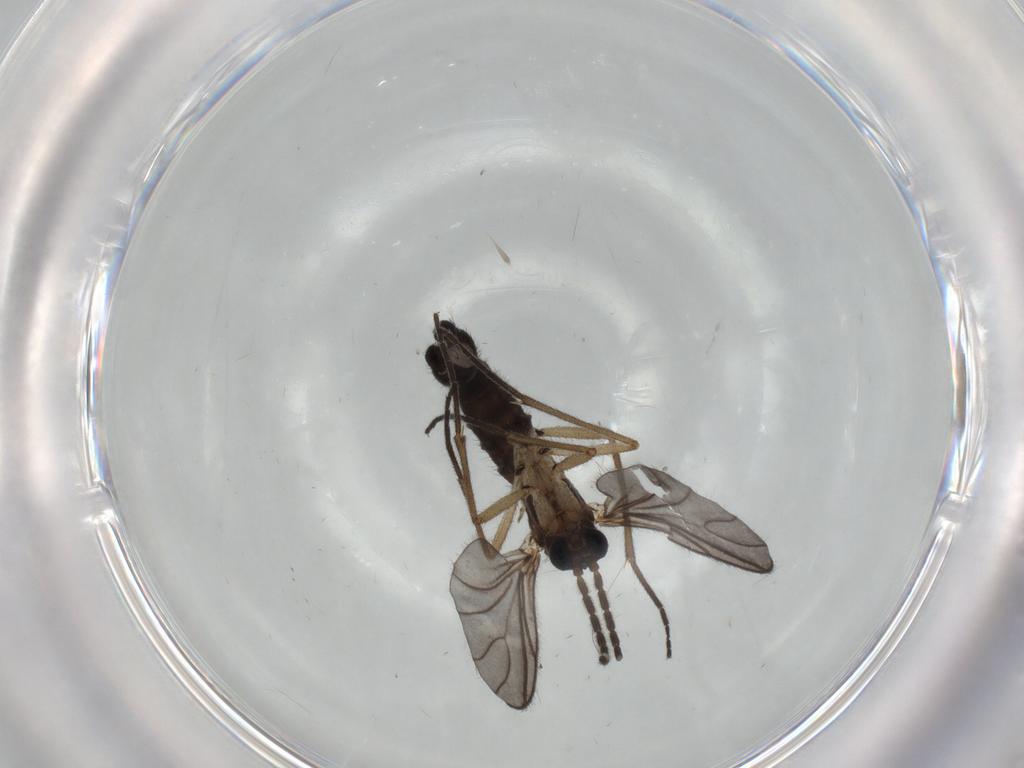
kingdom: Animalia
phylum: Arthropoda
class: Insecta
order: Diptera
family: Sciaridae
